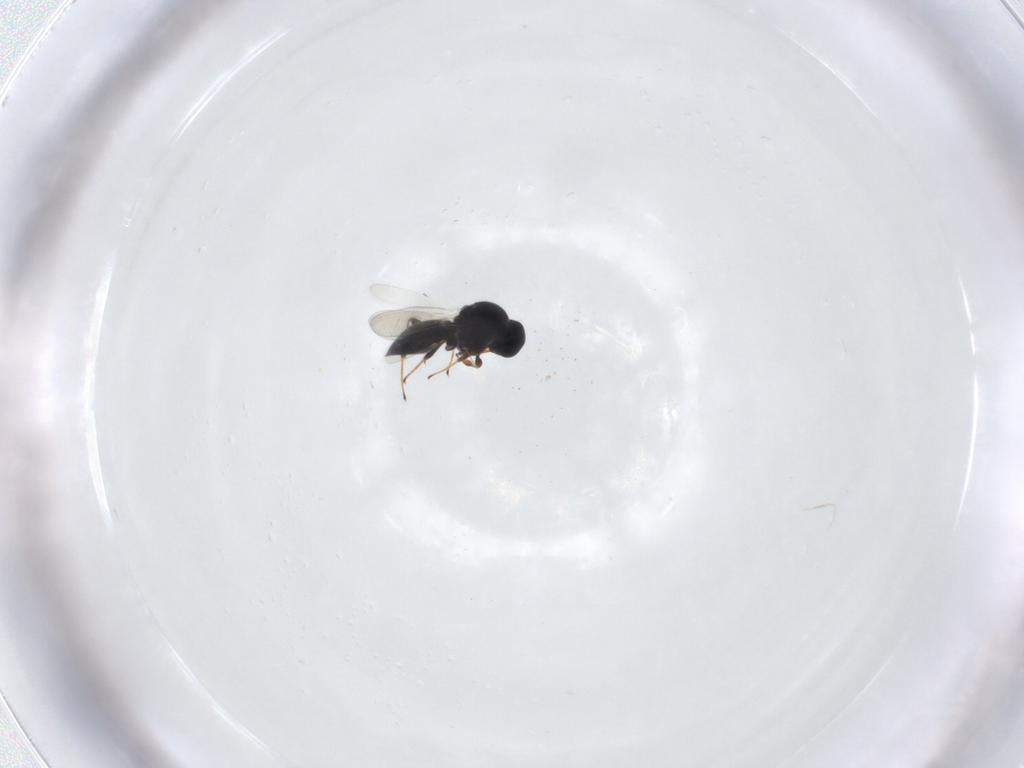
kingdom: Animalia
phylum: Arthropoda
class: Insecta
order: Hymenoptera
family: Platygastridae
